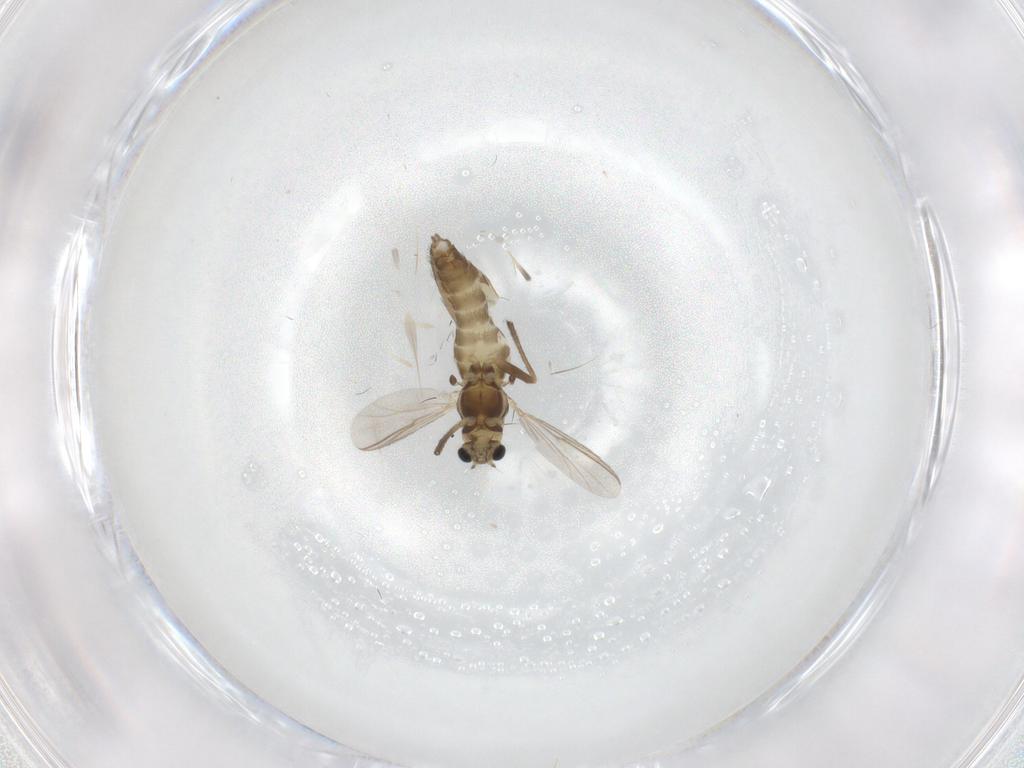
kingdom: Animalia
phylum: Arthropoda
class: Insecta
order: Diptera
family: Chironomidae
